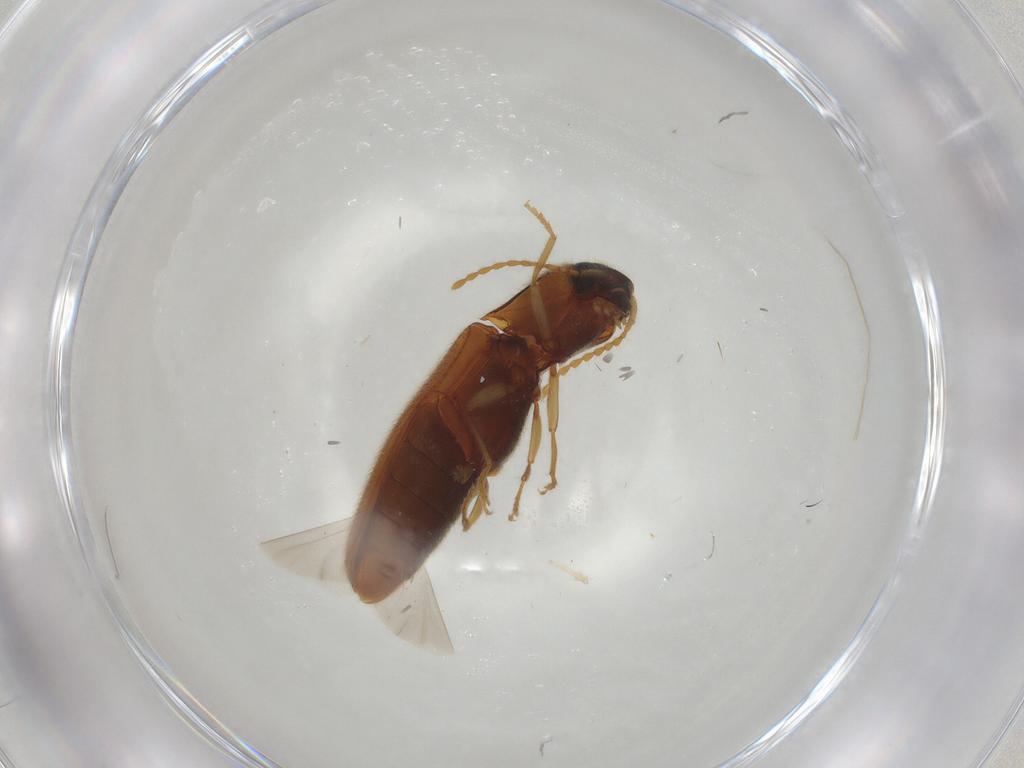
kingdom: Animalia
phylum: Arthropoda
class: Insecta
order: Coleoptera
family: Elateridae
